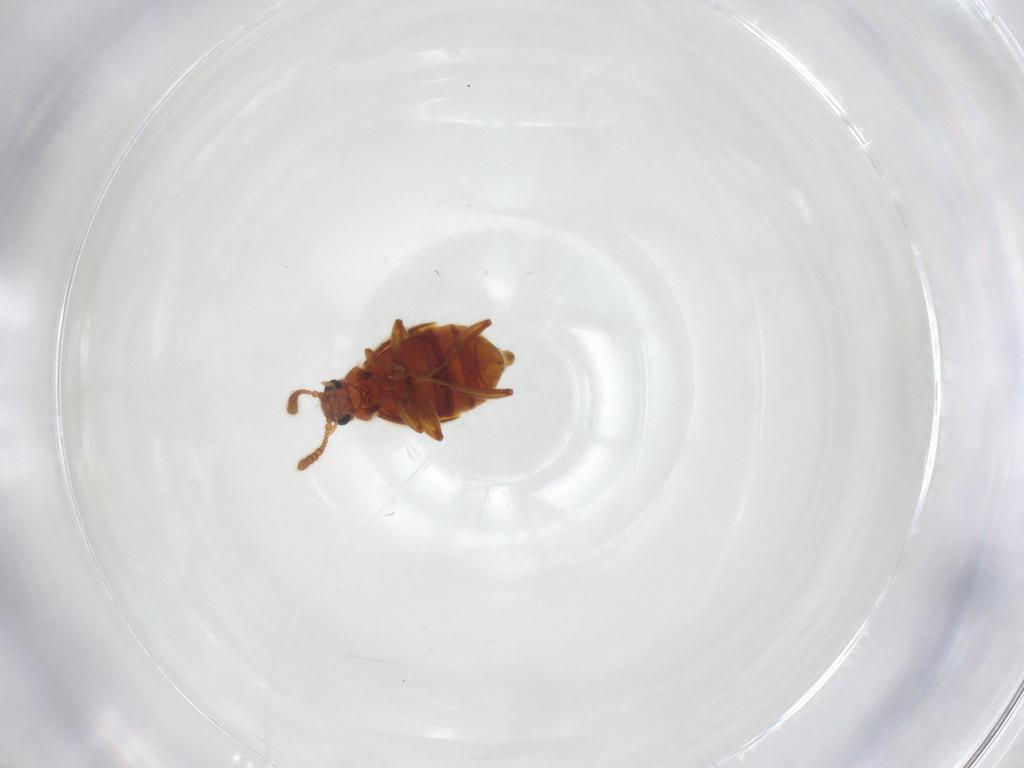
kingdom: Animalia
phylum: Arthropoda
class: Insecta
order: Coleoptera
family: Staphylinidae
